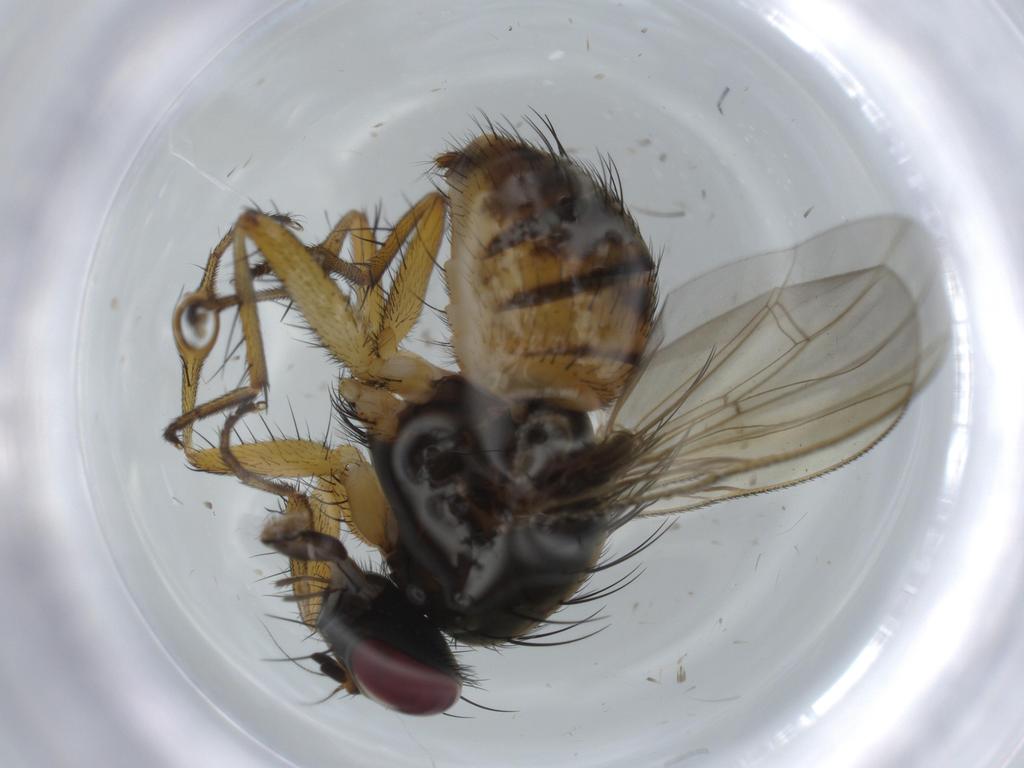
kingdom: Animalia
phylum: Arthropoda
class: Insecta
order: Diptera
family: Muscidae
